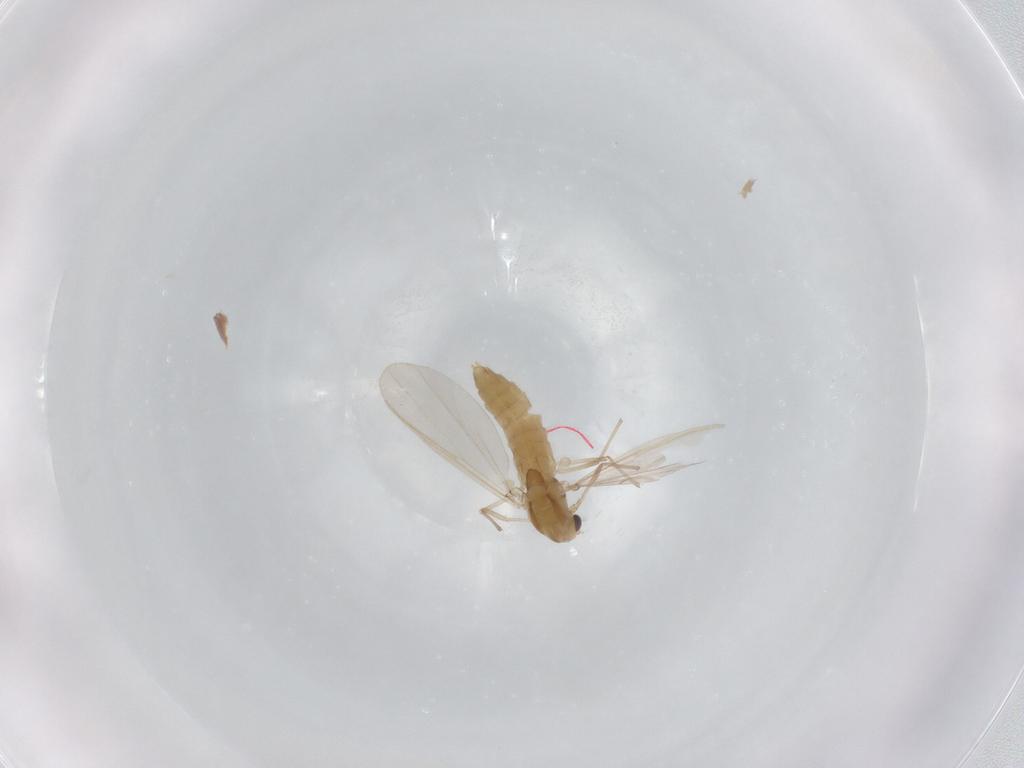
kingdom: Animalia
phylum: Arthropoda
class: Insecta
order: Diptera
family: Chironomidae
